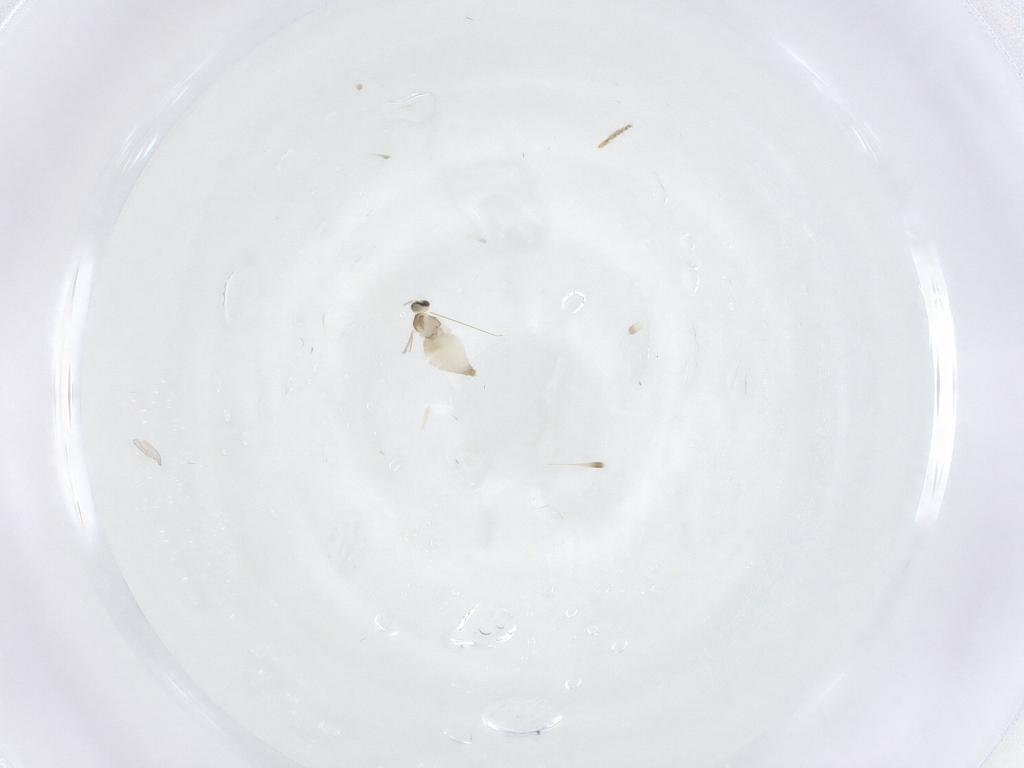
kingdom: Animalia
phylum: Arthropoda
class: Insecta
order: Diptera
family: Cecidomyiidae
